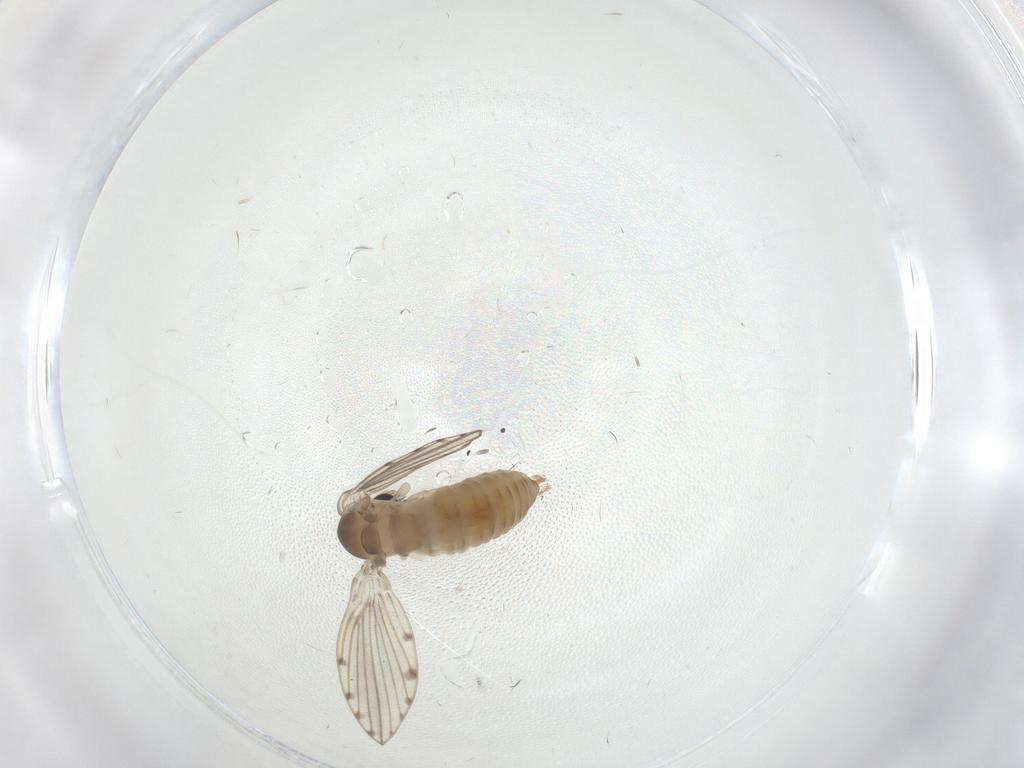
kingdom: Animalia
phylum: Arthropoda
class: Insecta
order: Diptera
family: Psychodidae
